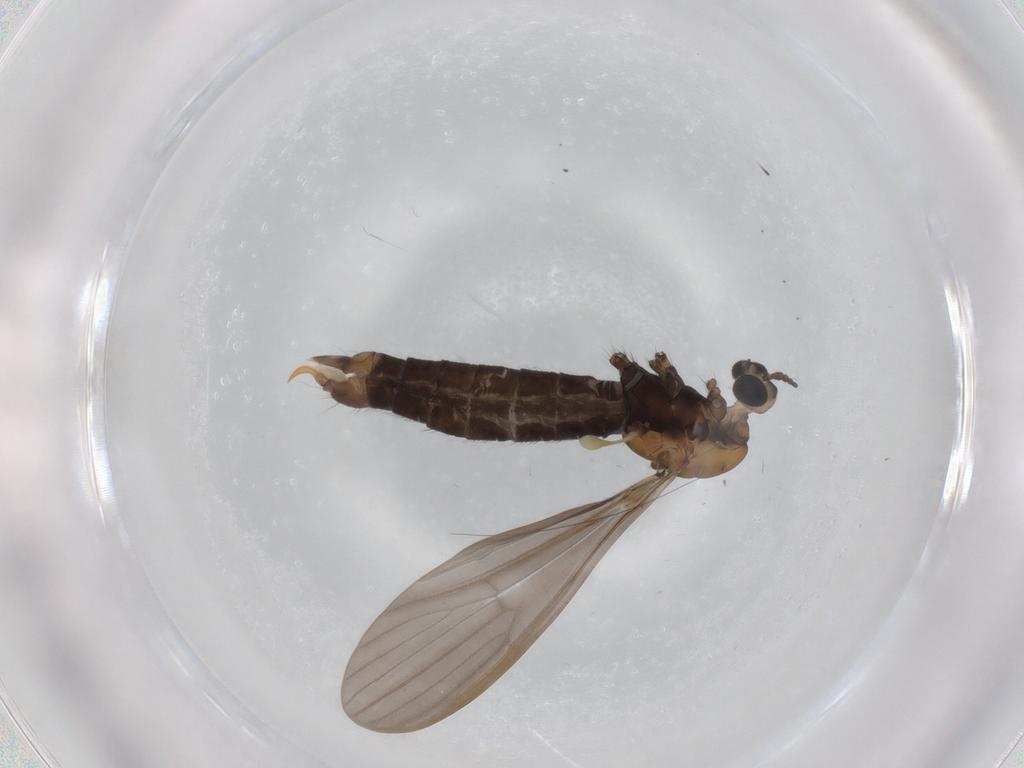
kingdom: Animalia
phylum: Arthropoda
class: Insecta
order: Diptera
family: Limoniidae
